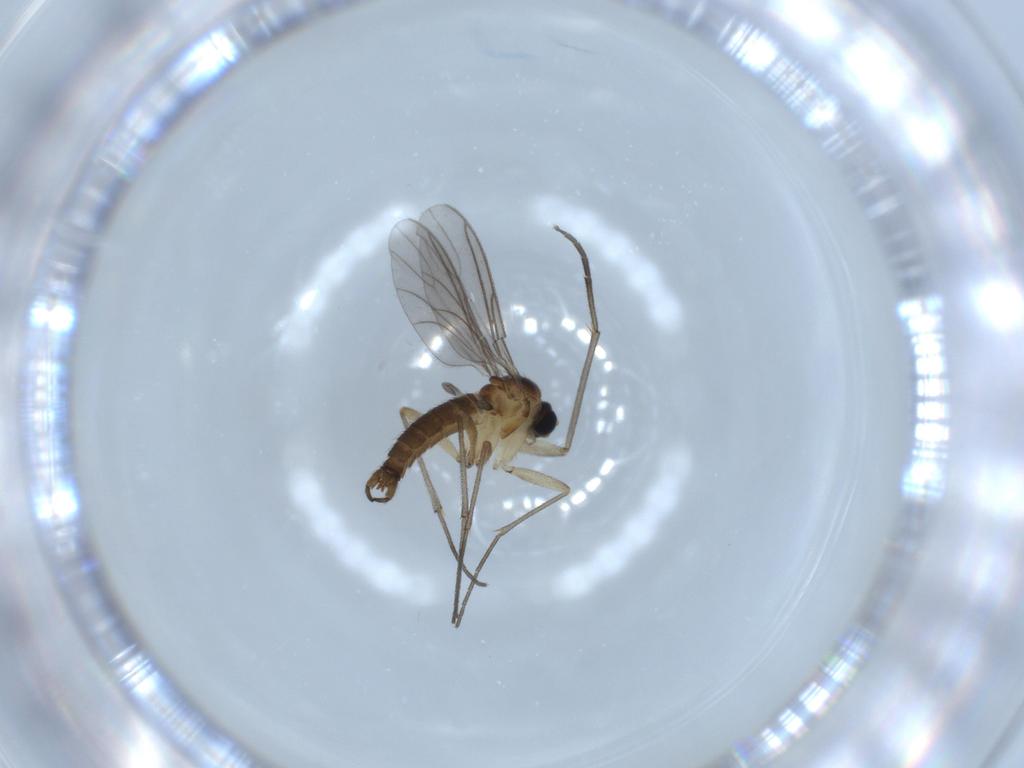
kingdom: Animalia
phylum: Arthropoda
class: Insecta
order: Diptera
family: Sciaridae
